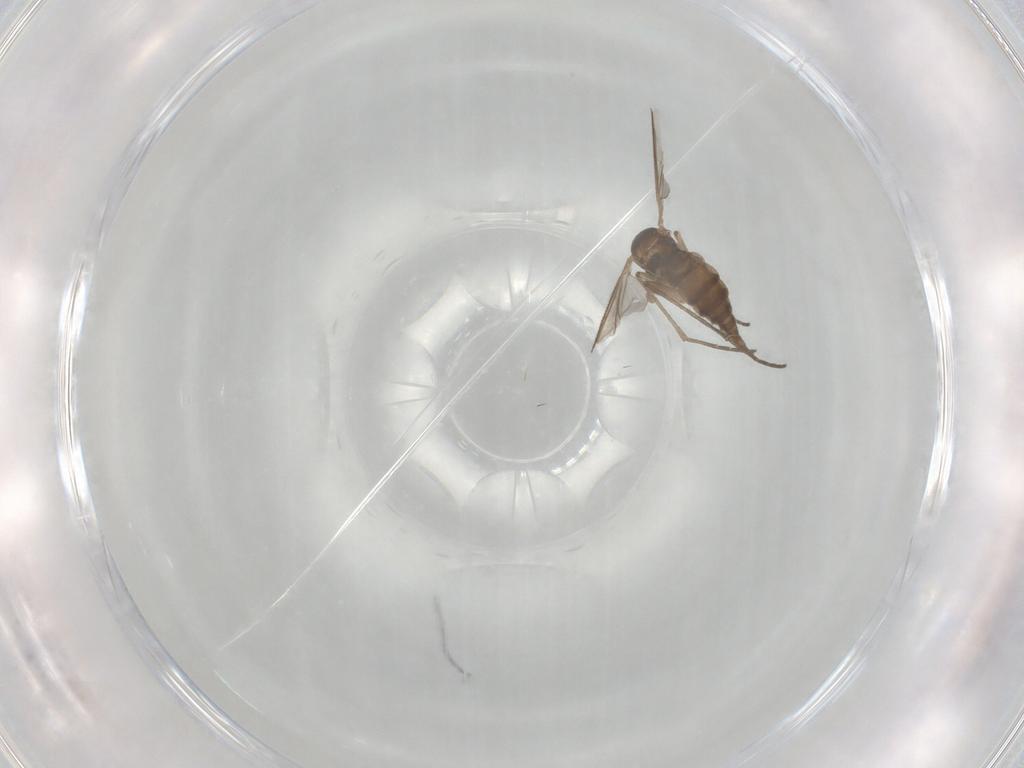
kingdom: Animalia
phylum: Arthropoda
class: Insecta
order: Diptera
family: Sciaridae
